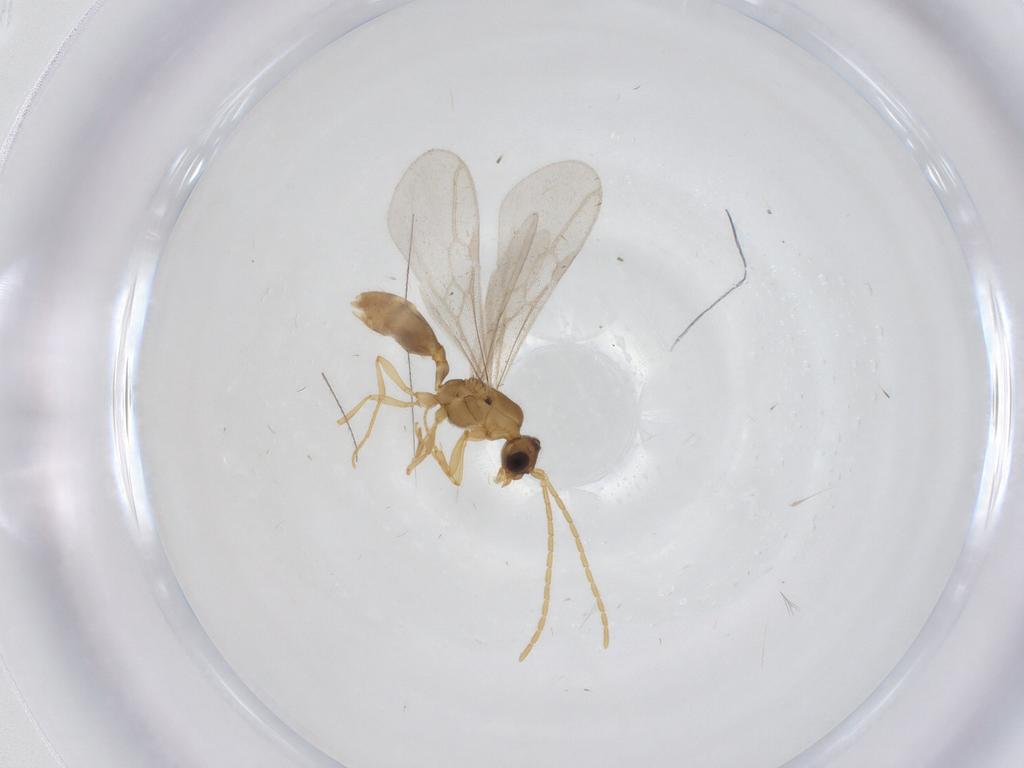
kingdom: Animalia
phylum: Arthropoda
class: Insecta
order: Hymenoptera
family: Formicidae
